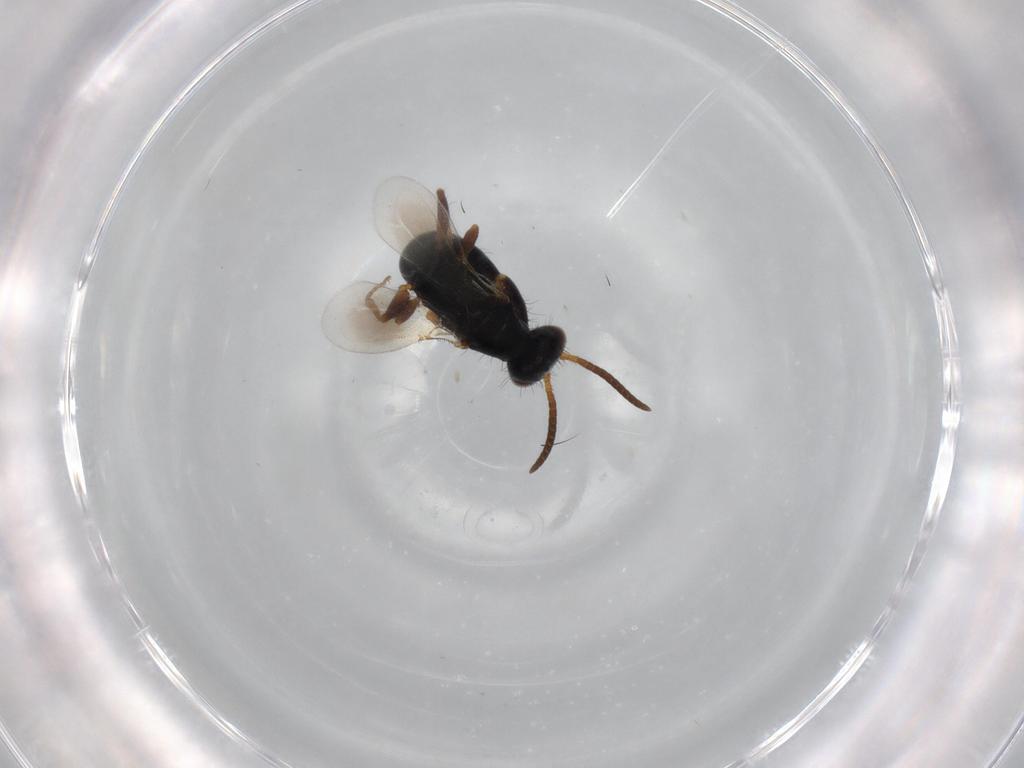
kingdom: Animalia
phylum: Arthropoda
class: Insecta
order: Hymenoptera
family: Bethylidae
